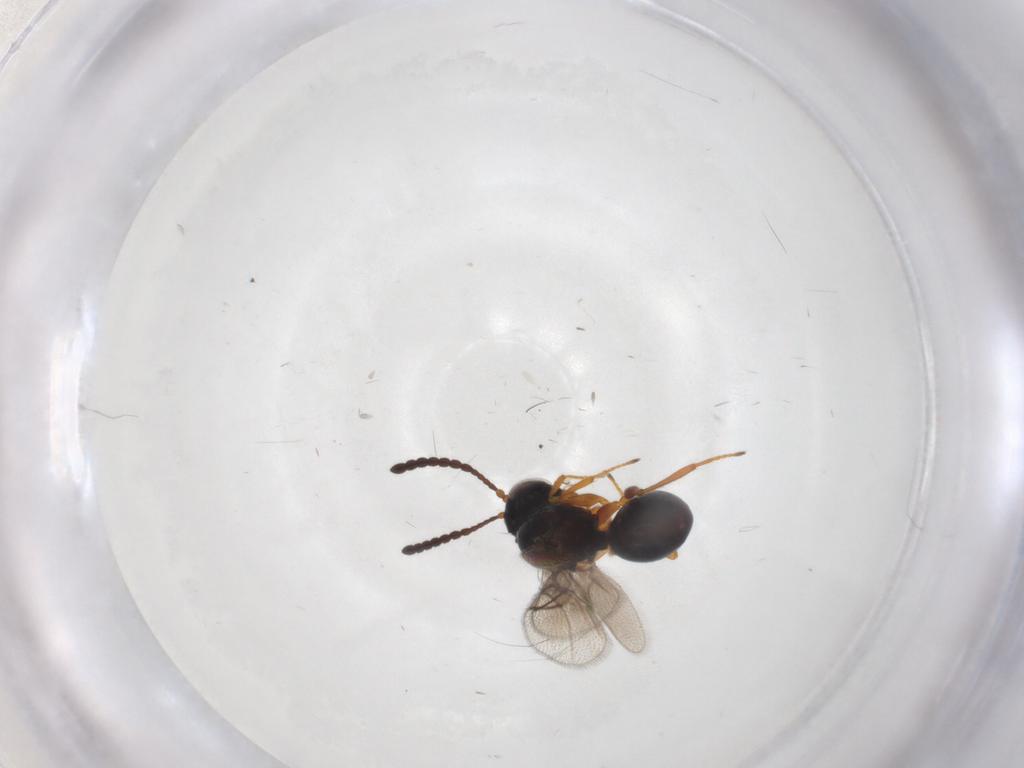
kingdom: Animalia
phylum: Arthropoda
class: Insecta
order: Hymenoptera
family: Figitidae
